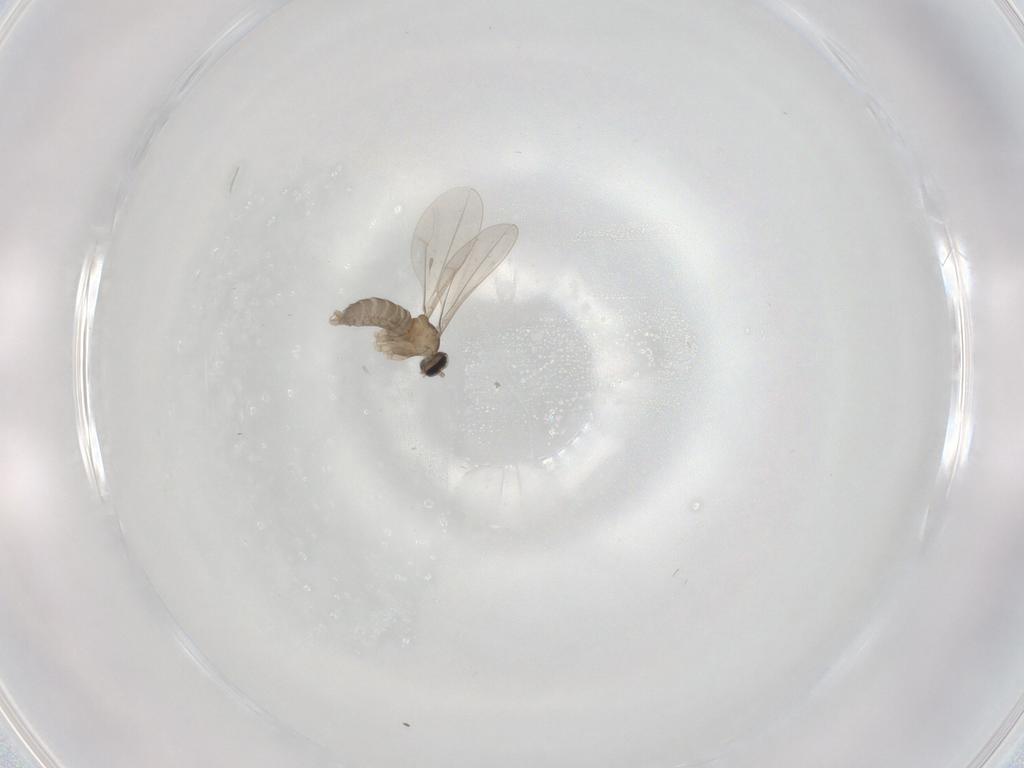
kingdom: Animalia
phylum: Arthropoda
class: Insecta
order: Diptera
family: Cecidomyiidae
